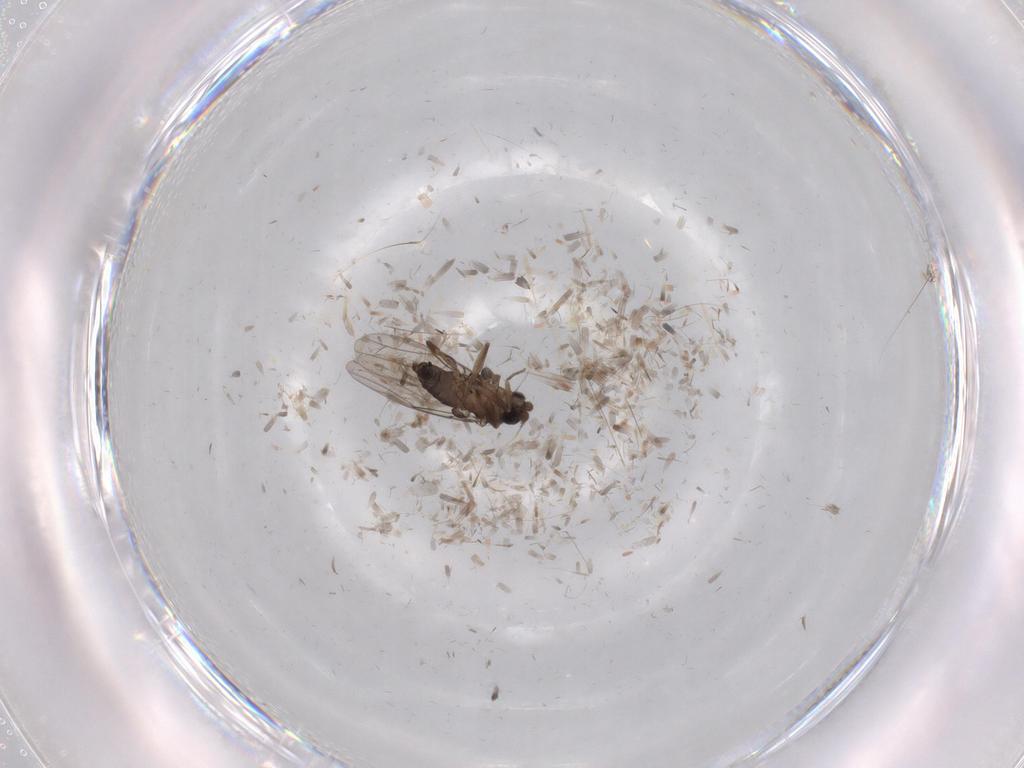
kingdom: Animalia
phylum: Arthropoda
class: Insecta
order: Diptera
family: Phoridae
